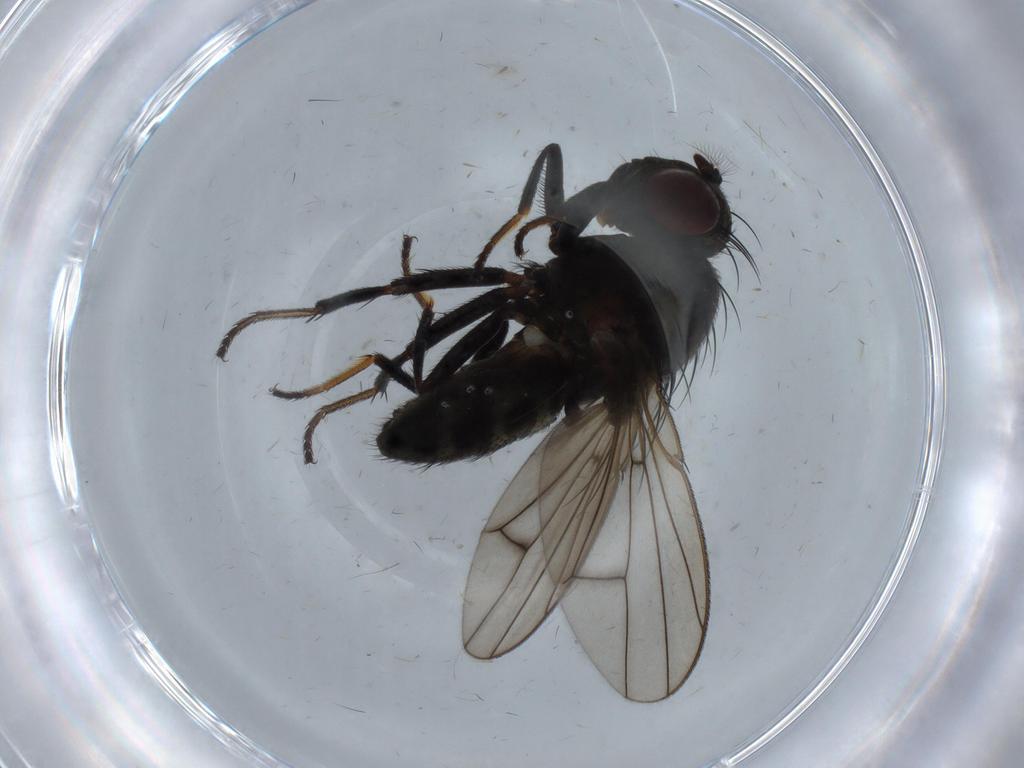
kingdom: Animalia
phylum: Arthropoda
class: Insecta
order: Diptera
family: Ephydridae
